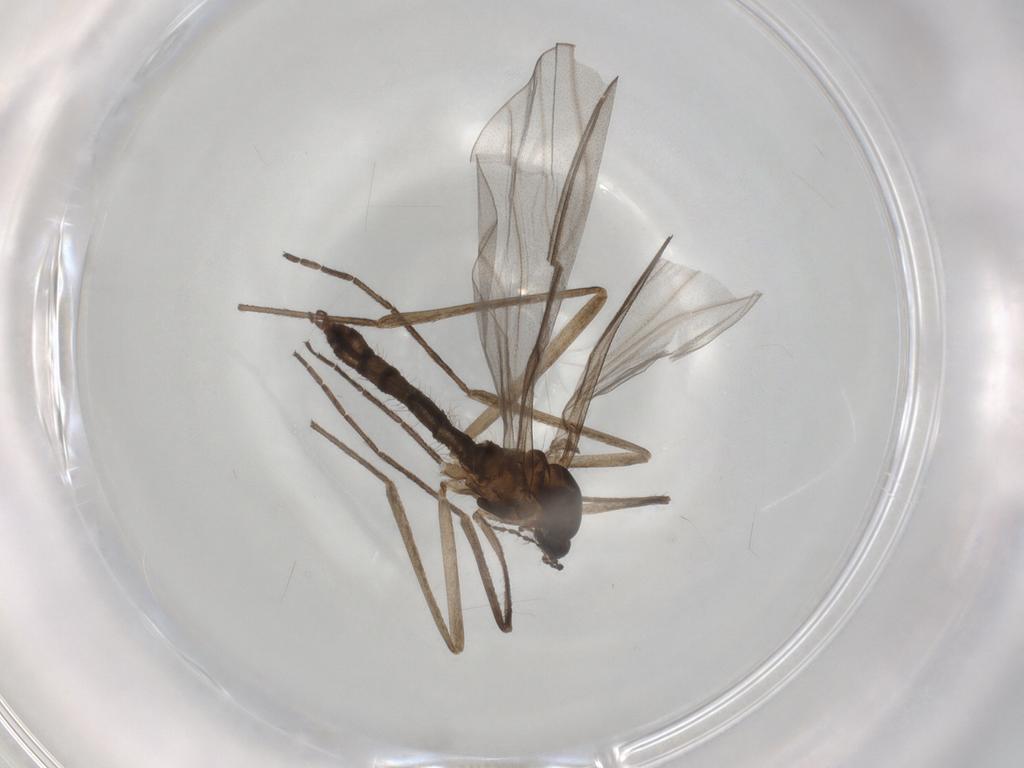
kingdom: Animalia
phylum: Arthropoda
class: Insecta
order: Diptera
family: Cecidomyiidae
